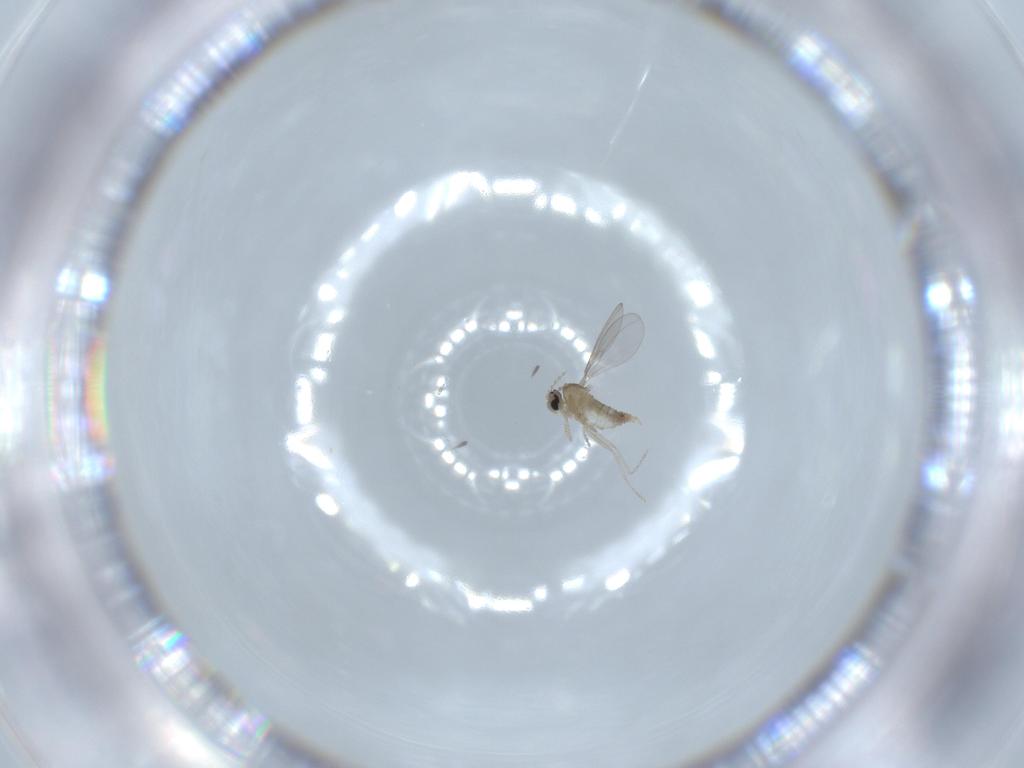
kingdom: Animalia
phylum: Arthropoda
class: Insecta
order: Diptera
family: Cecidomyiidae
